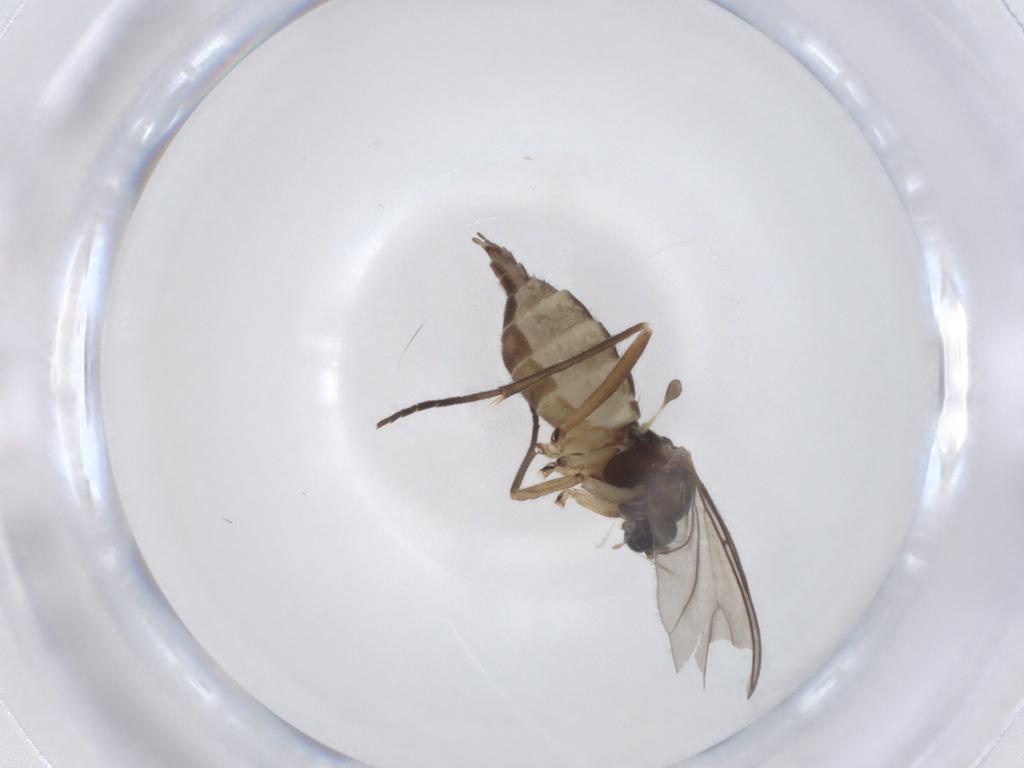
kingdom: Animalia
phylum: Arthropoda
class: Insecta
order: Diptera
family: Sciaridae
